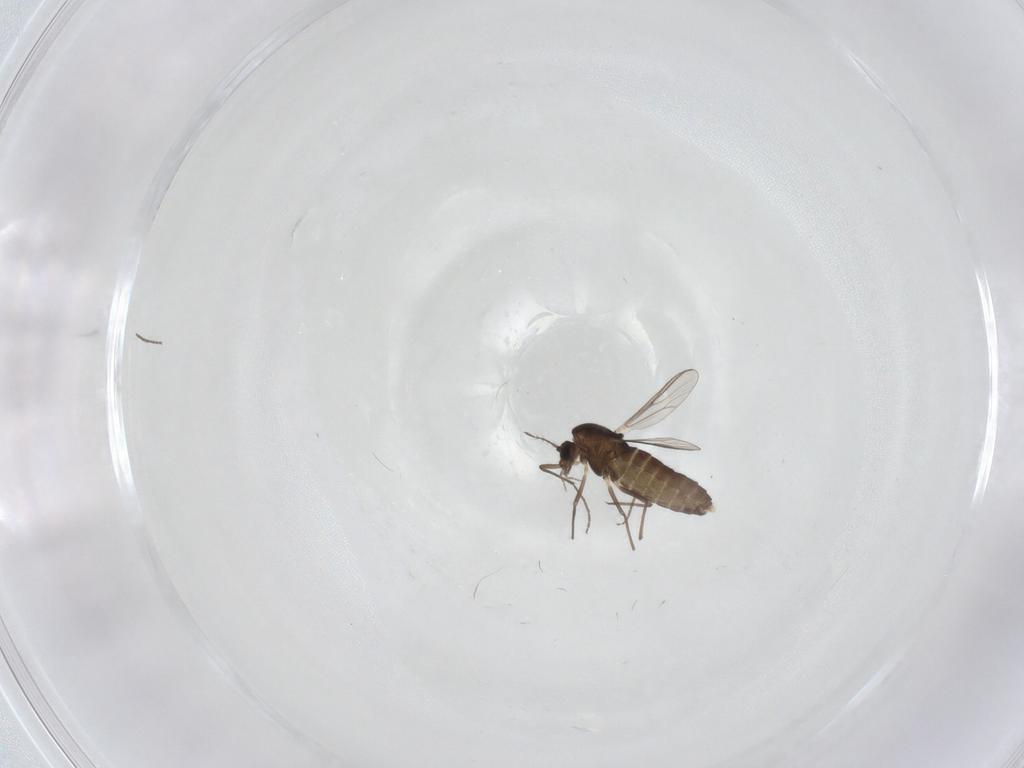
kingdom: Animalia
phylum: Arthropoda
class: Insecta
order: Diptera
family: Chironomidae
